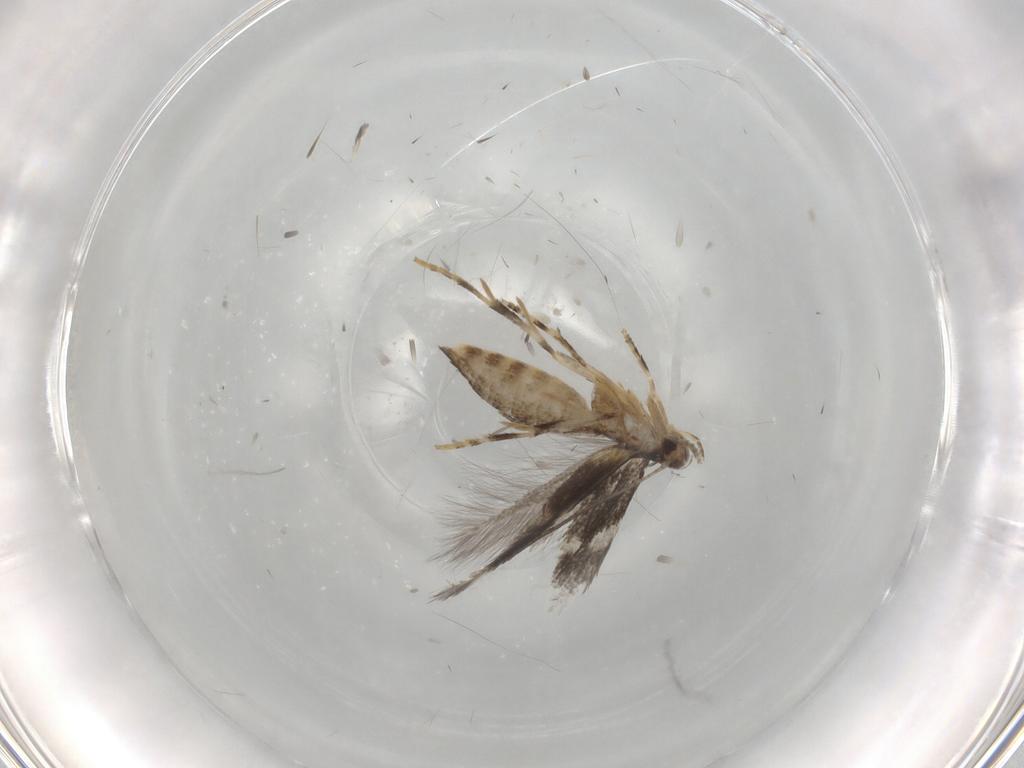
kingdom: Animalia
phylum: Arthropoda
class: Insecta
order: Lepidoptera
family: Elachistidae
